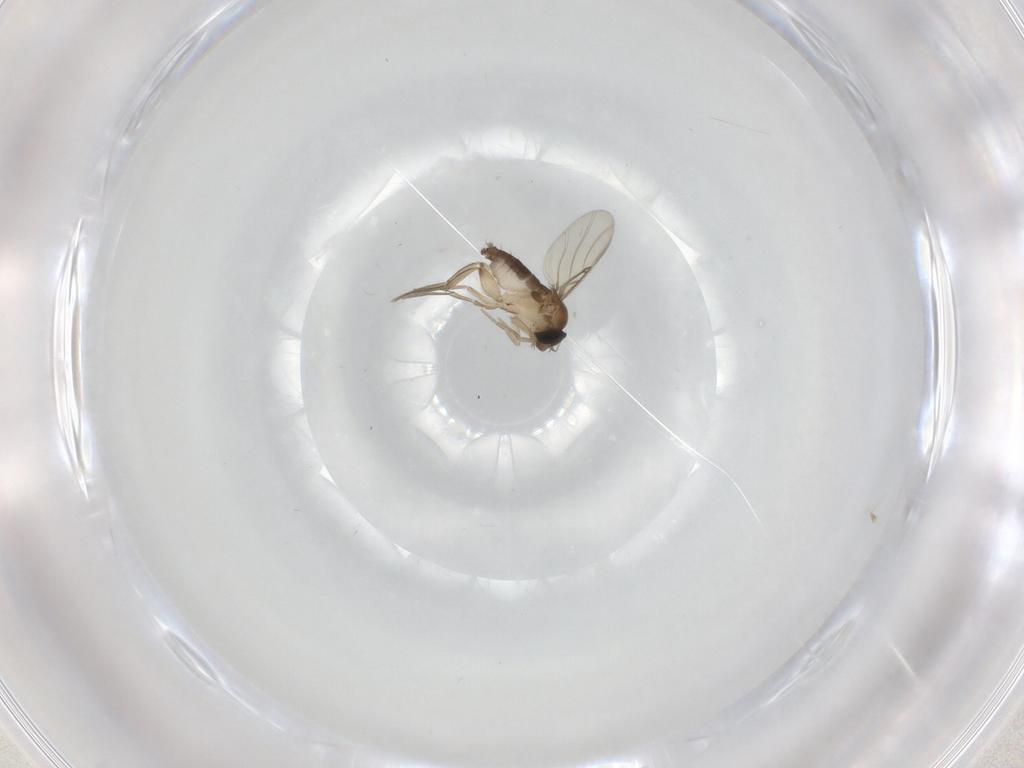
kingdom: Animalia
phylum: Arthropoda
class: Insecta
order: Diptera
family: Phoridae
